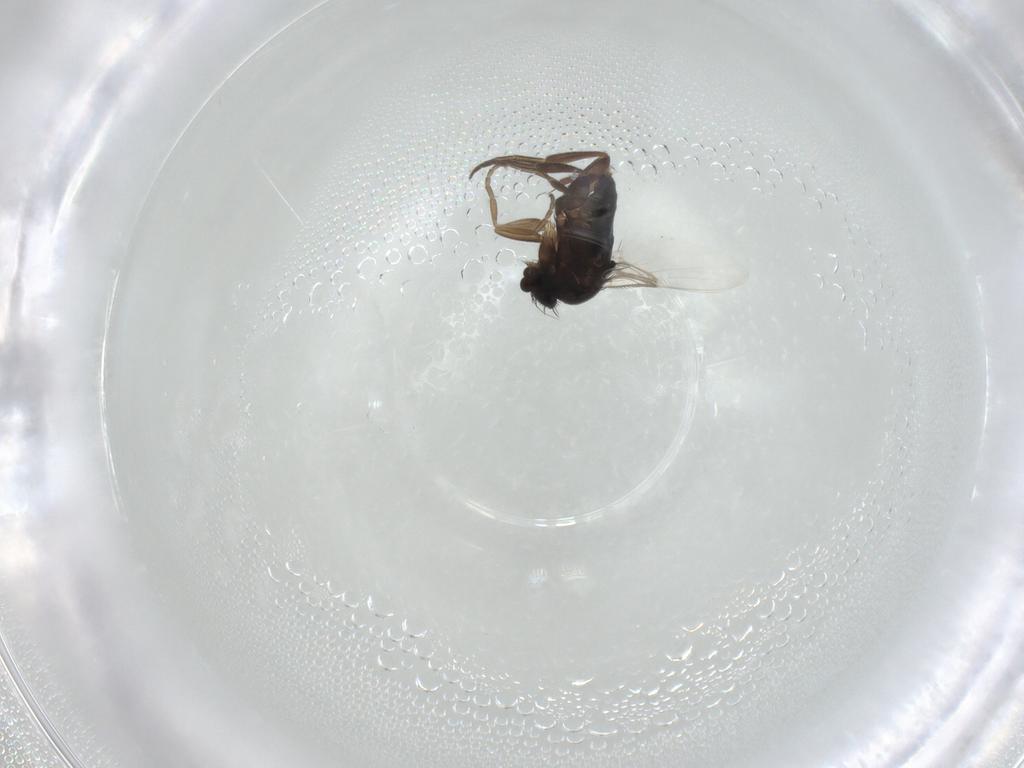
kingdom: Animalia
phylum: Arthropoda
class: Insecta
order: Diptera
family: Phoridae
